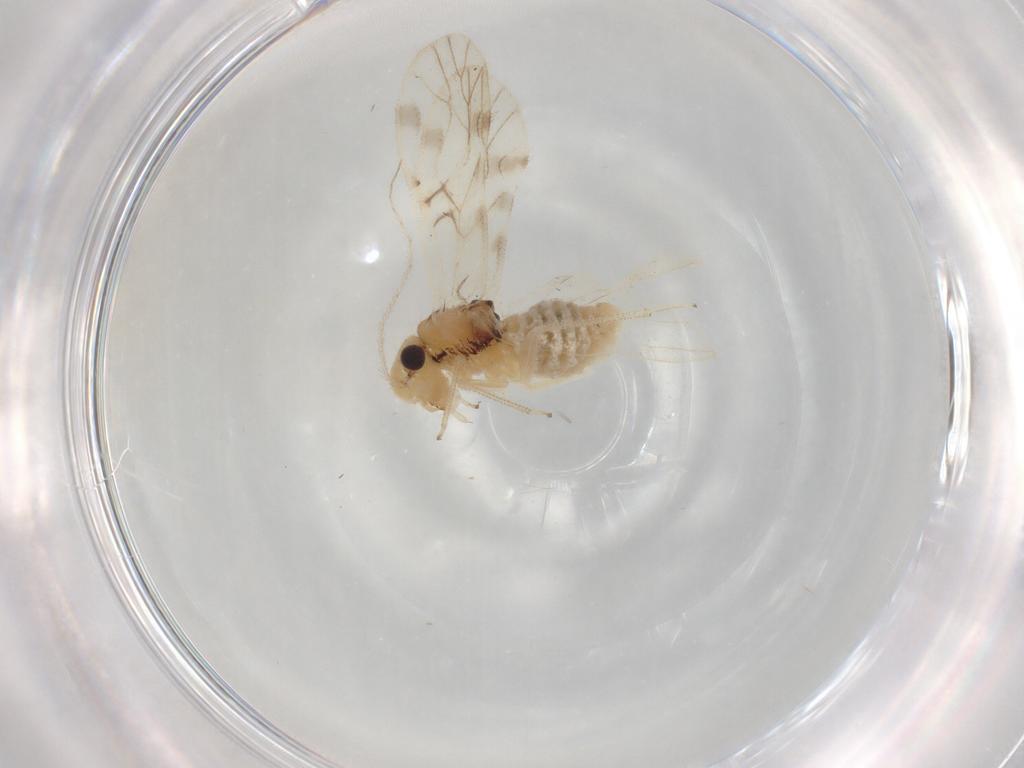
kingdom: Animalia
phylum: Arthropoda
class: Insecta
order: Psocodea
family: Caeciliusidae
